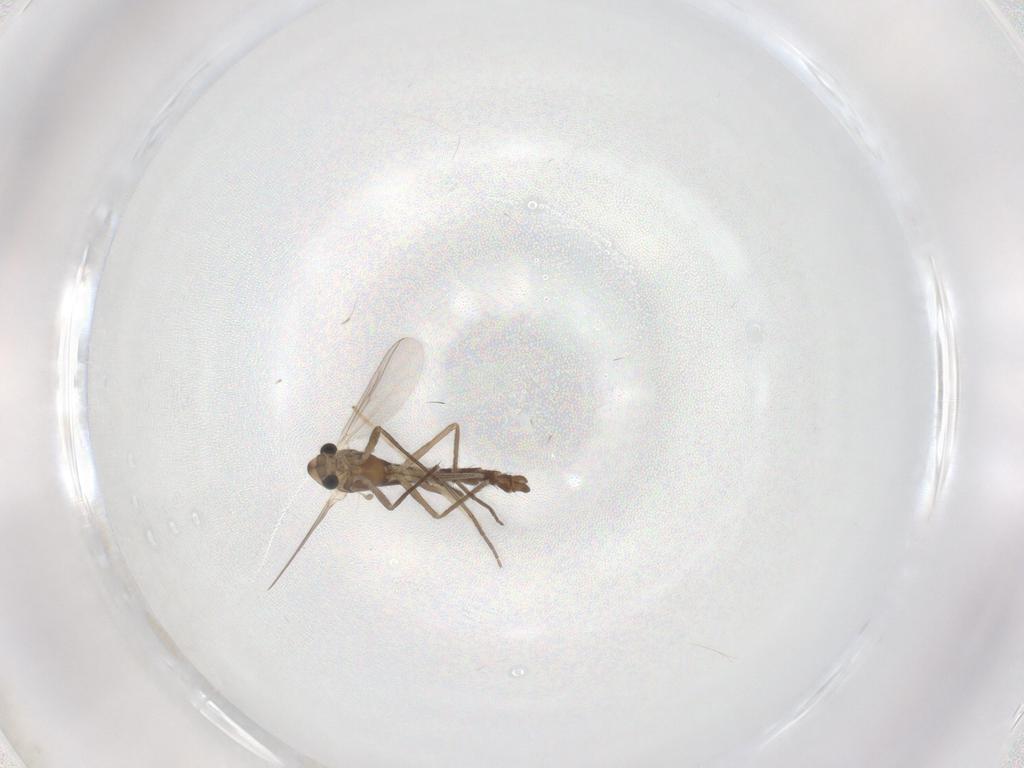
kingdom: Animalia
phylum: Arthropoda
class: Insecta
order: Diptera
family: Chironomidae
